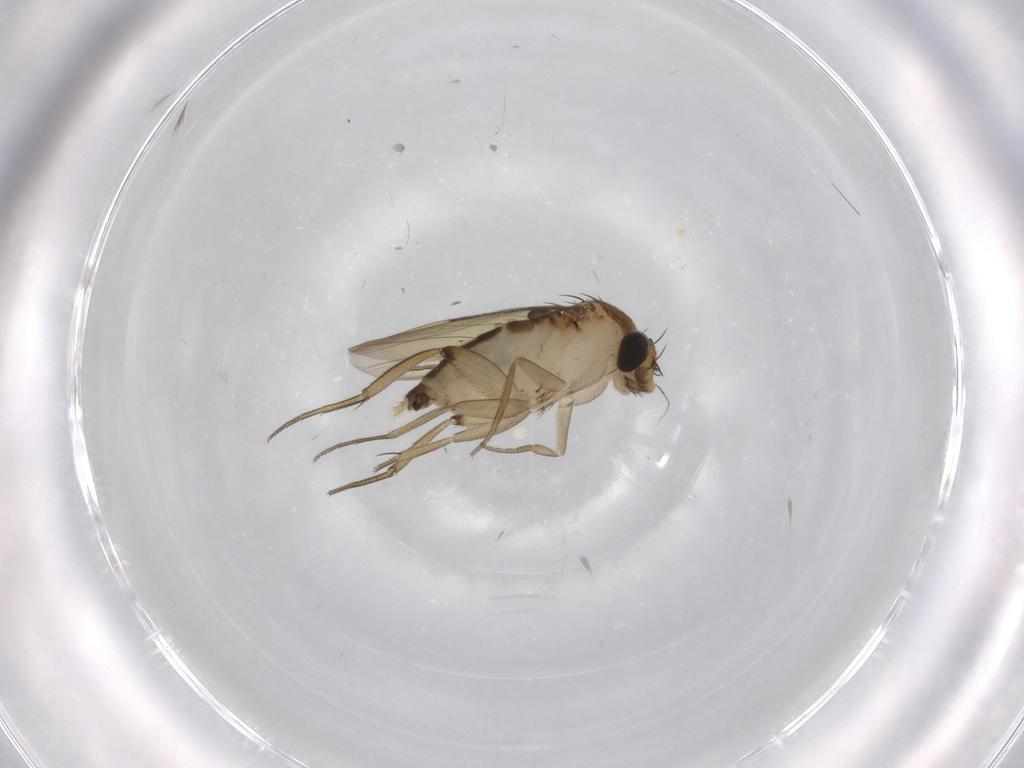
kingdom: Animalia
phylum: Arthropoda
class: Insecta
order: Diptera
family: Phoridae
